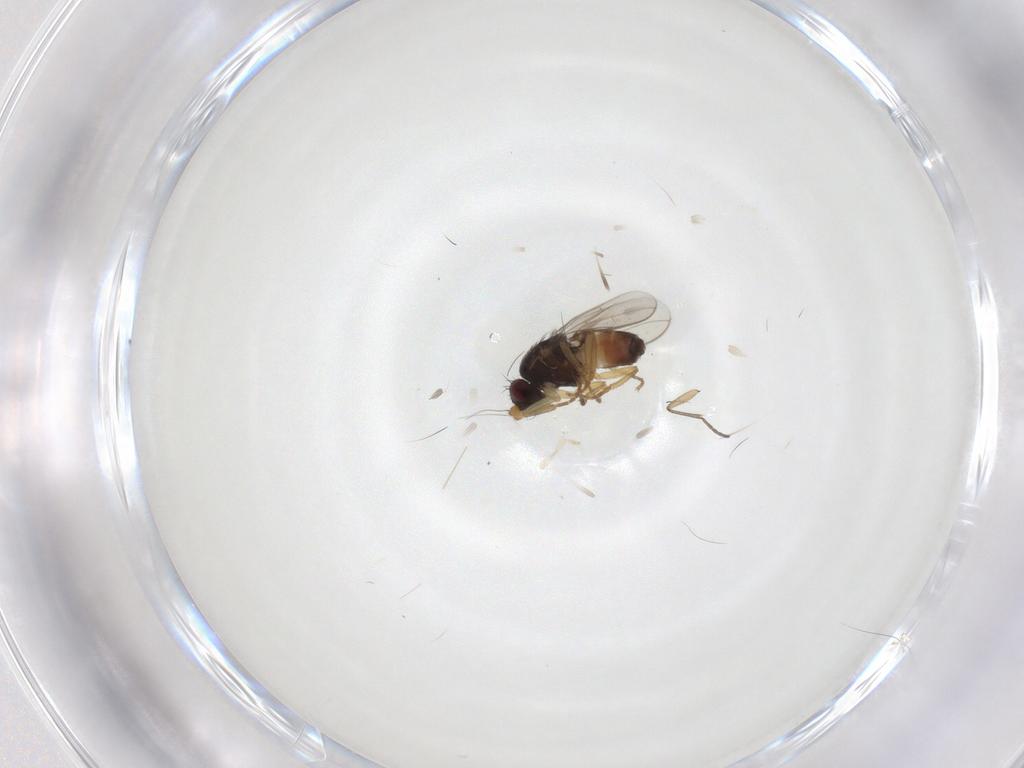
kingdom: Animalia
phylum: Arthropoda
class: Insecta
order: Diptera
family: Sphaeroceridae
